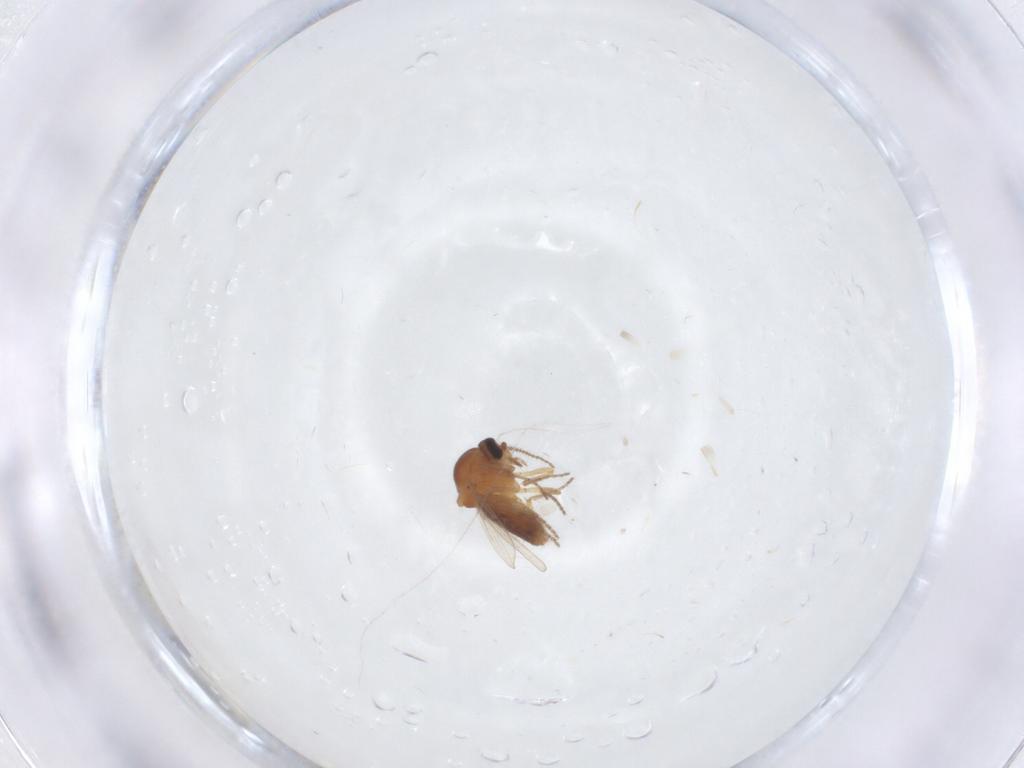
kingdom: Animalia
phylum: Arthropoda
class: Insecta
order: Diptera
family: Ceratopogonidae
